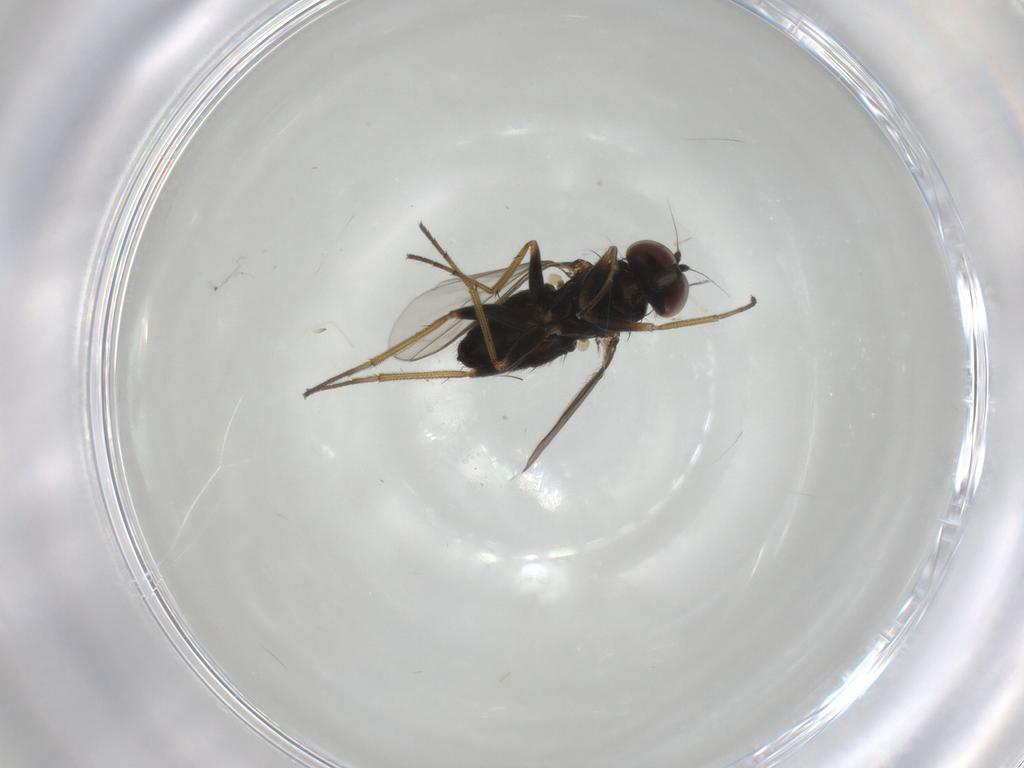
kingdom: Animalia
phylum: Arthropoda
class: Insecta
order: Diptera
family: Dolichopodidae
